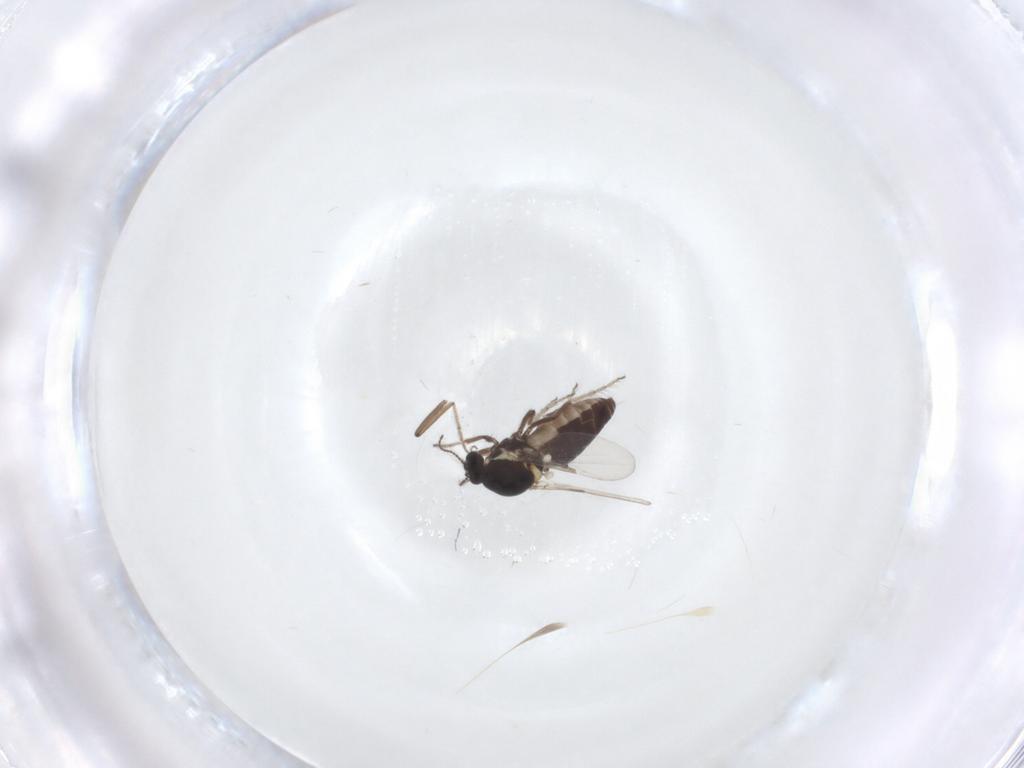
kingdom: Animalia
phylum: Arthropoda
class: Insecta
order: Diptera
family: Ceratopogonidae
